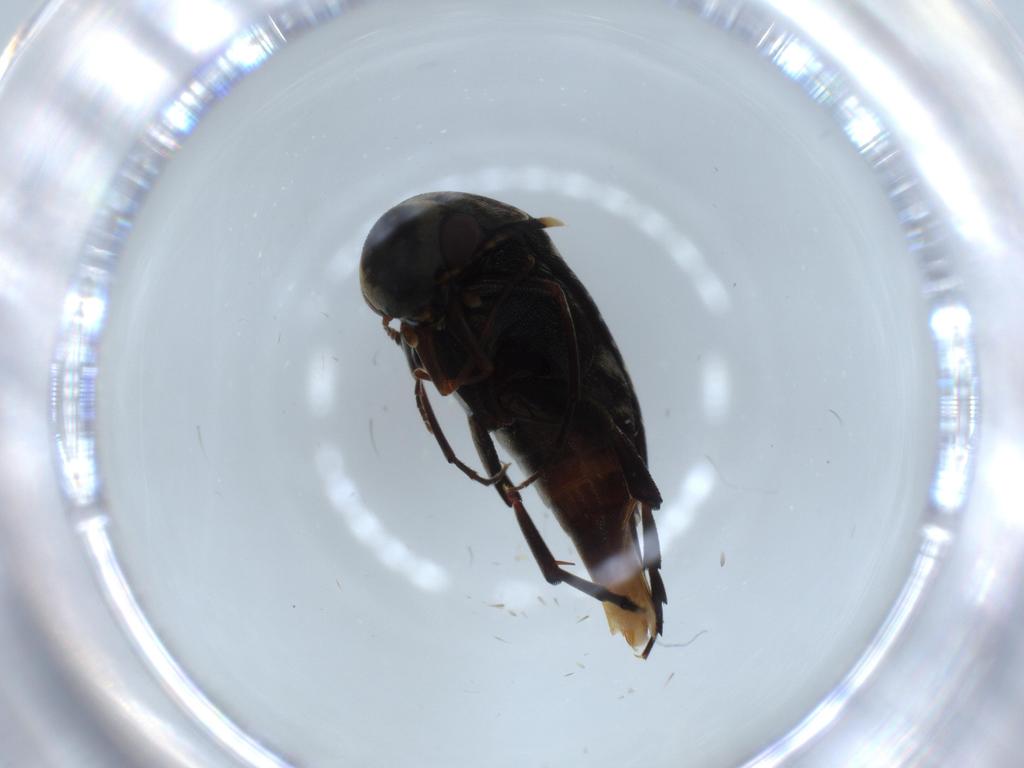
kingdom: Animalia
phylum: Arthropoda
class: Insecta
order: Coleoptera
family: Chrysomelidae
